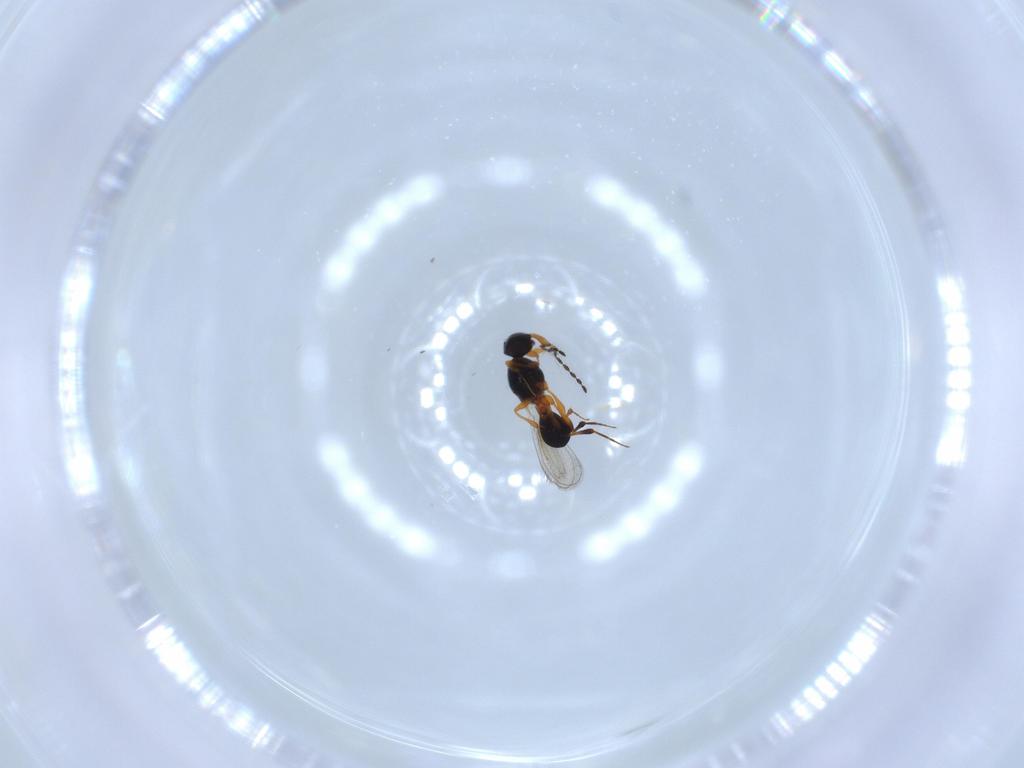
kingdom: Animalia
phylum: Arthropoda
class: Insecta
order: Hymenoptera
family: Platygastridae
